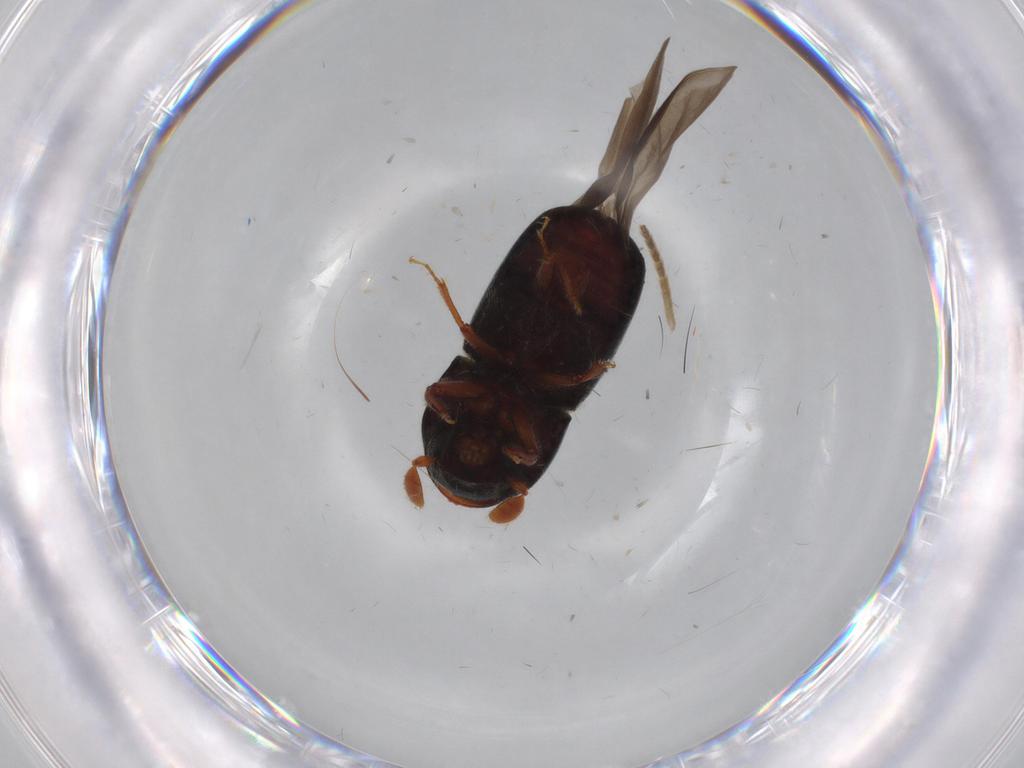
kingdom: Animalia
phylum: Arthropoda
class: Insecta
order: Coleoptera
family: Curculionidae
